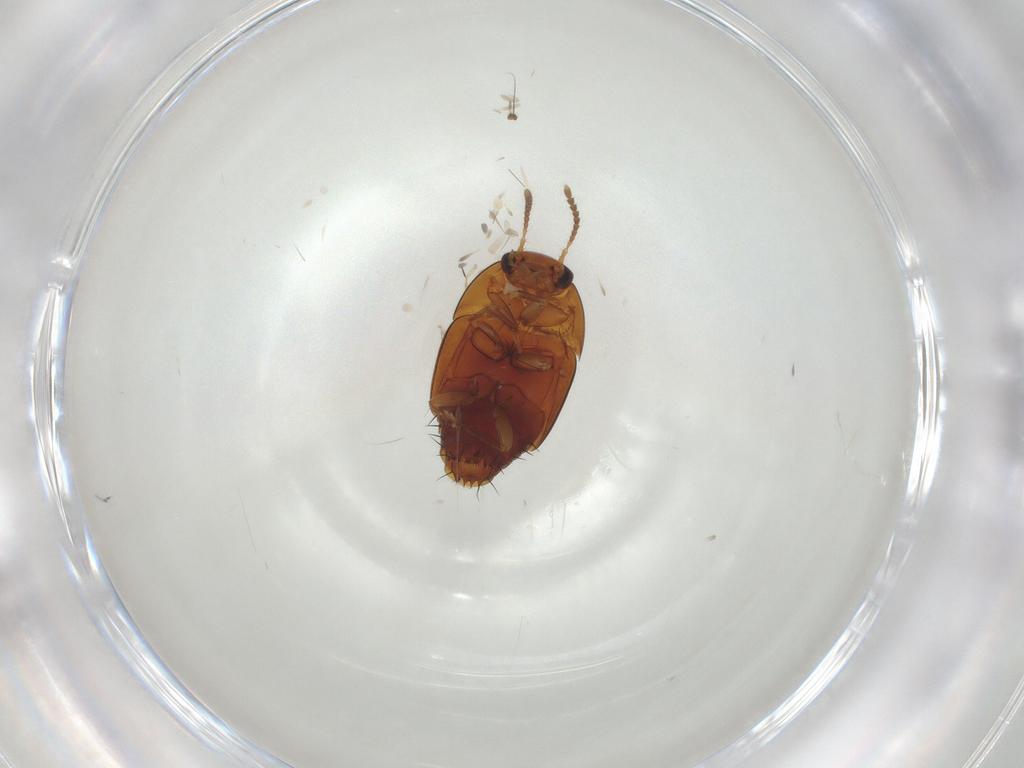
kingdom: Animalia
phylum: Arthropoda
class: Insecta
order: Coleoptera
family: Staphylinidae
